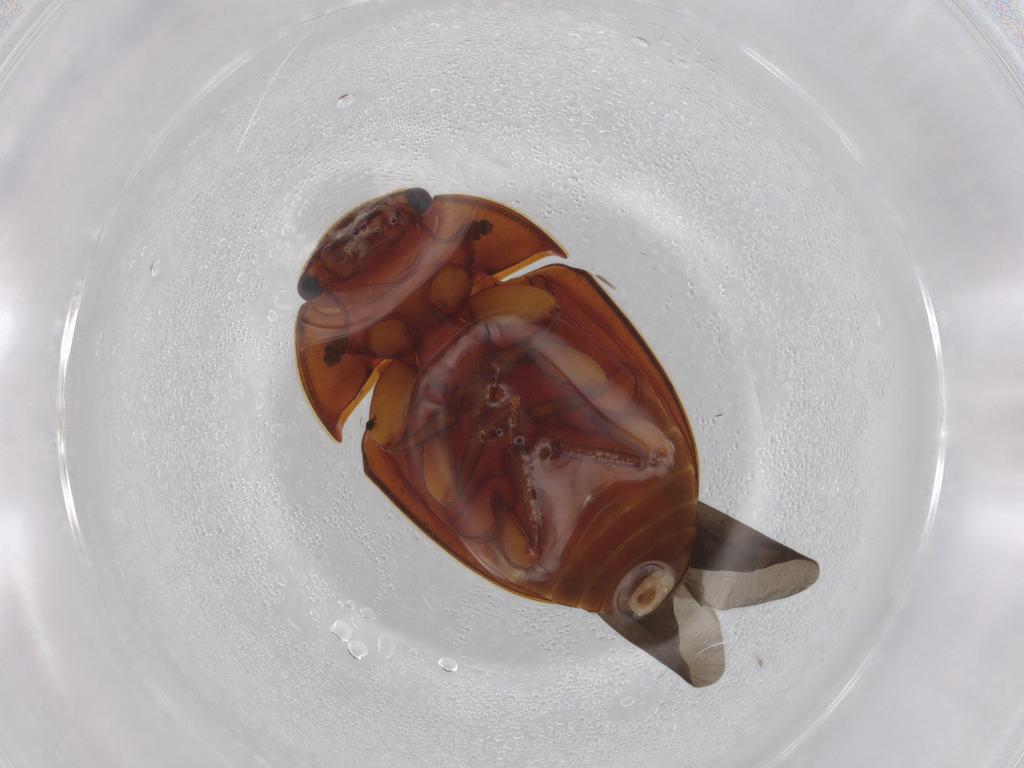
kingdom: Animalia
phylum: Arthropoda
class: Insecta
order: Coleoptera
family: Nitidulidae
